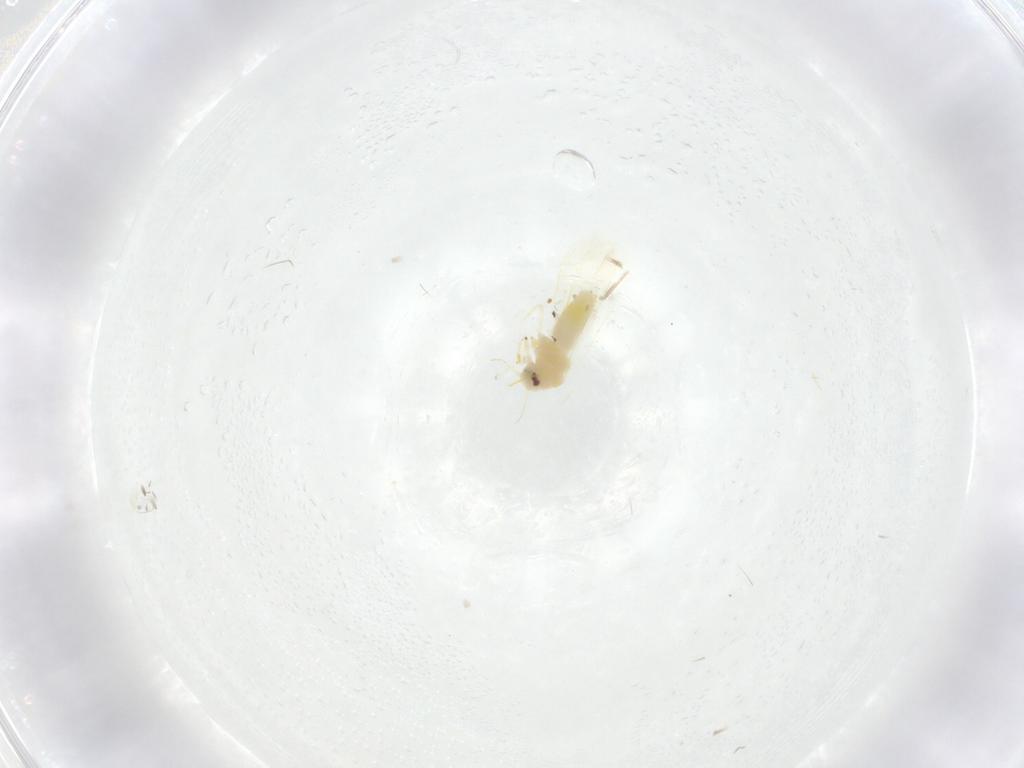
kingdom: Animalia
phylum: Arthropoda
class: Insecta
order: Hemiptera
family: Aleyrodidae
